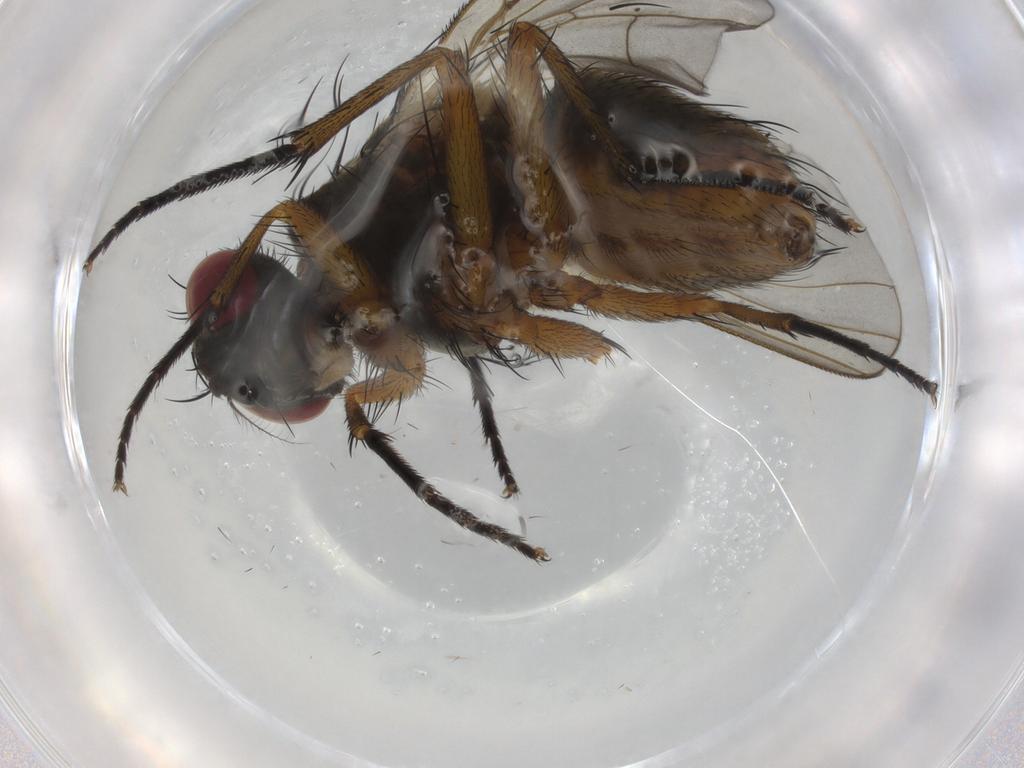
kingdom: Animalia
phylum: Arthropoda
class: Insecta
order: Diptera
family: Muscidae
